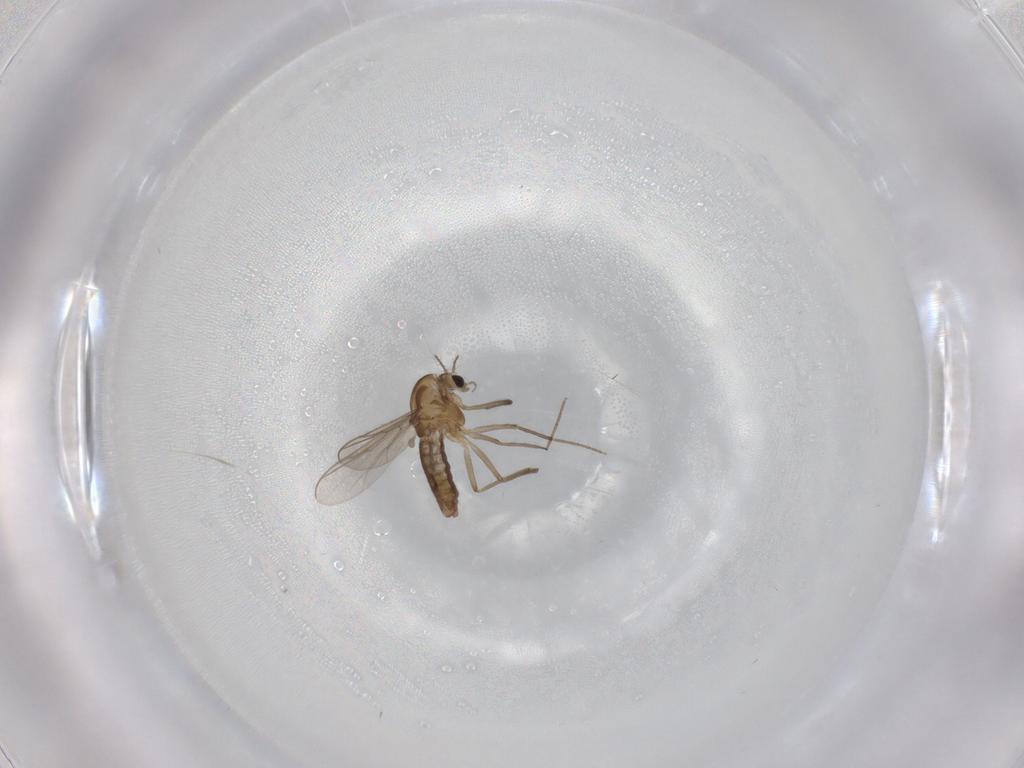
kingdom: Animalia
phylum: Arthropoda
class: Insecta
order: Diptera
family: Chironomidae
